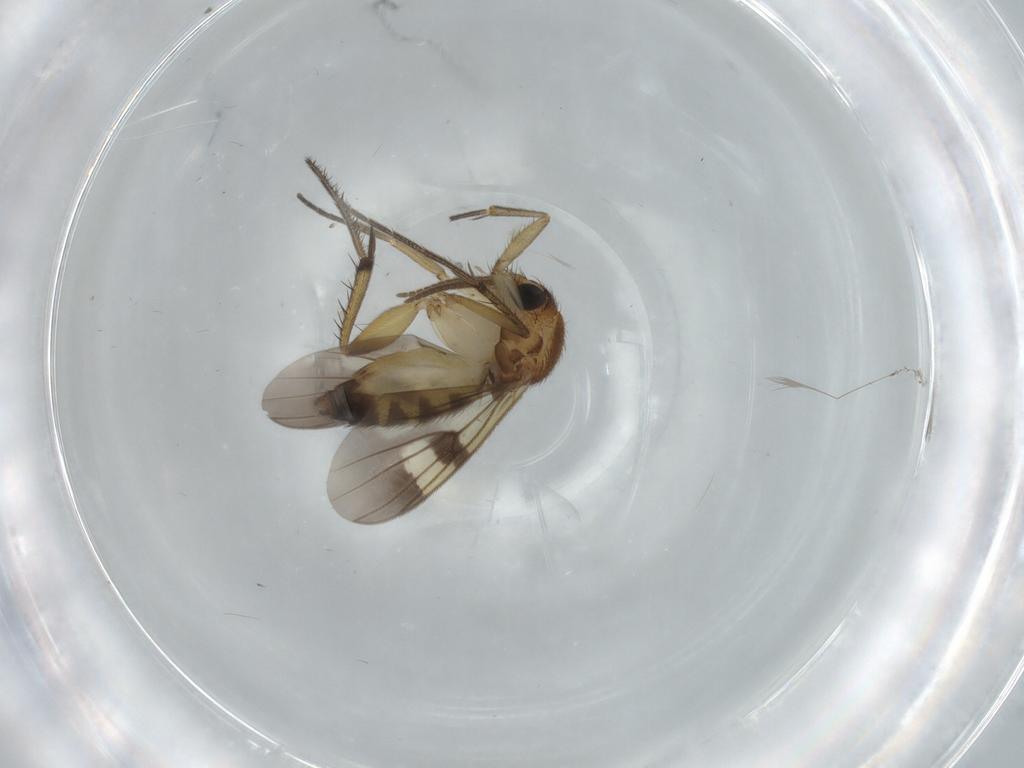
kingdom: Animalia
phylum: Arthropoda
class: Insecta
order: Diptera
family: Sciaridae
